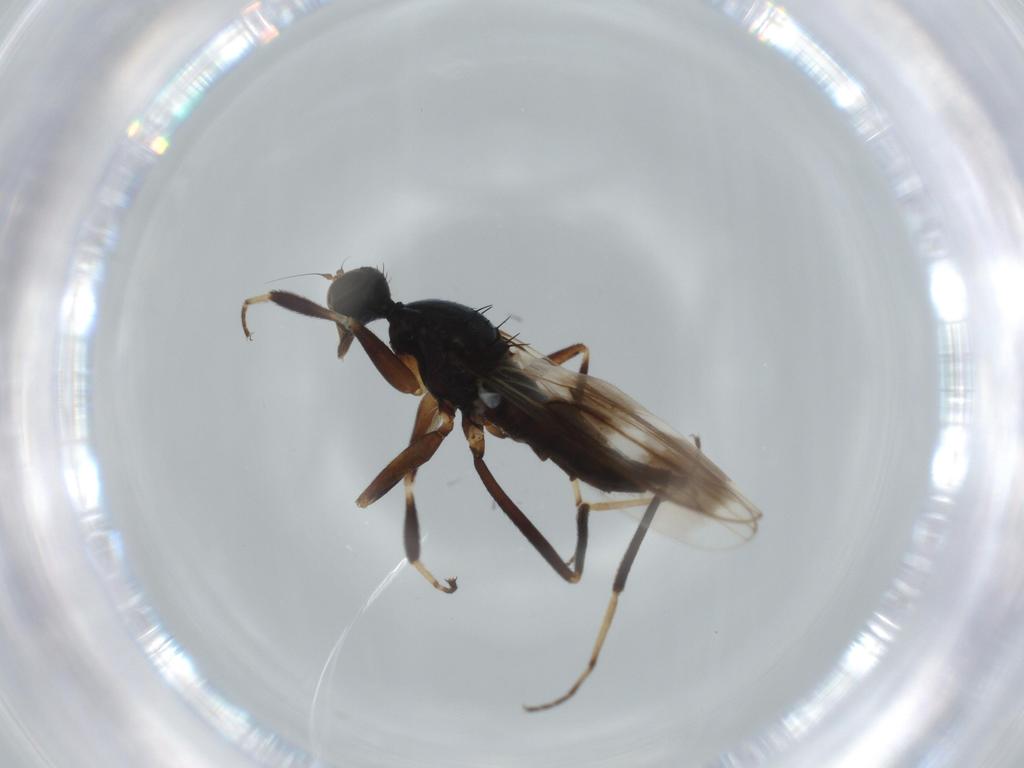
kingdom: Animalia
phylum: Arthropoda
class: Insecta
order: Diptera
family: Hybotidae
